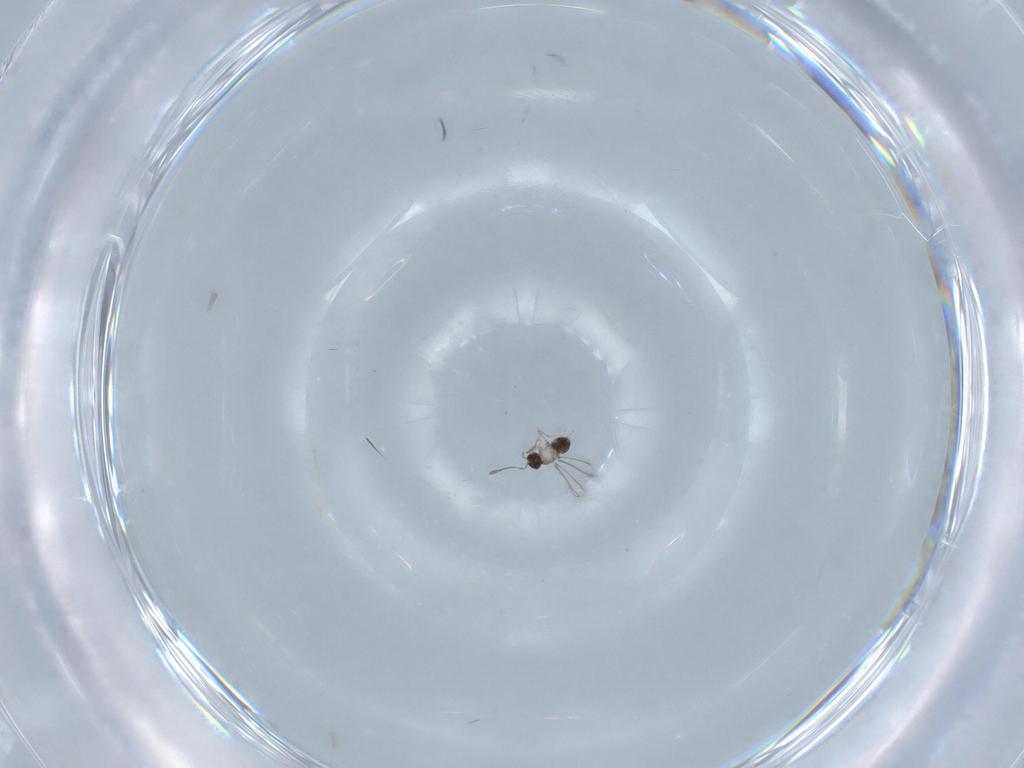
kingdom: Animalia
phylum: Arthropoda
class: Insecta
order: Hymenoptera
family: Mymaridae
